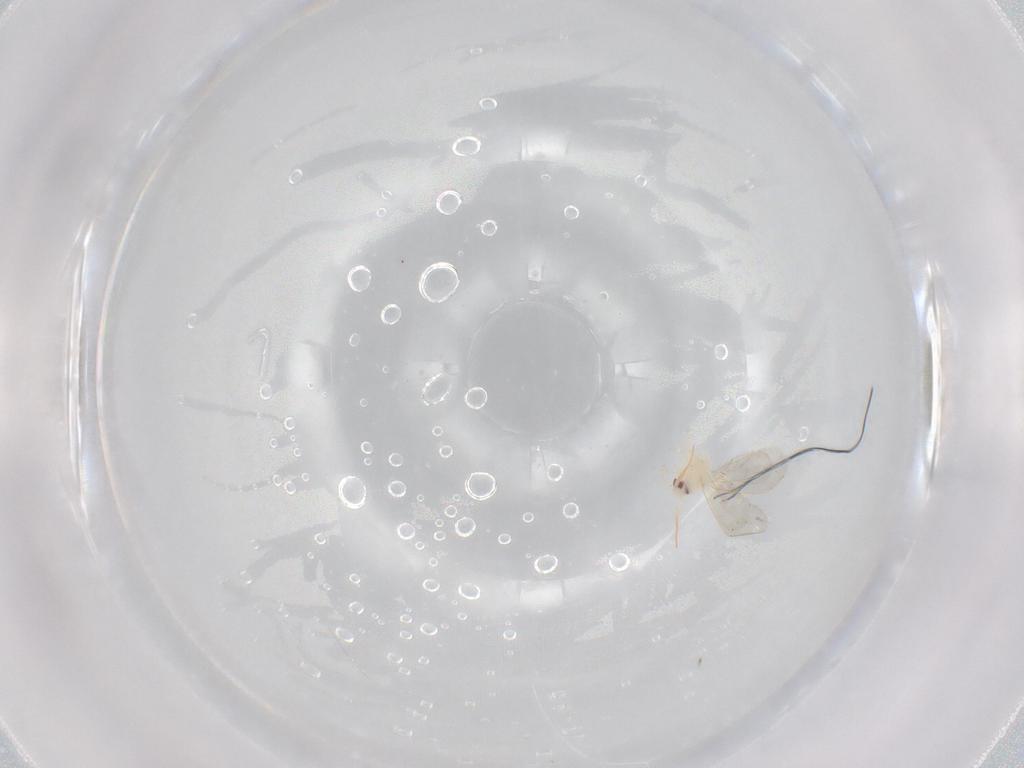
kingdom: Animalia
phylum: Arthropoda
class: Insecta
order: Hemiptera
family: Aleyrodidae
